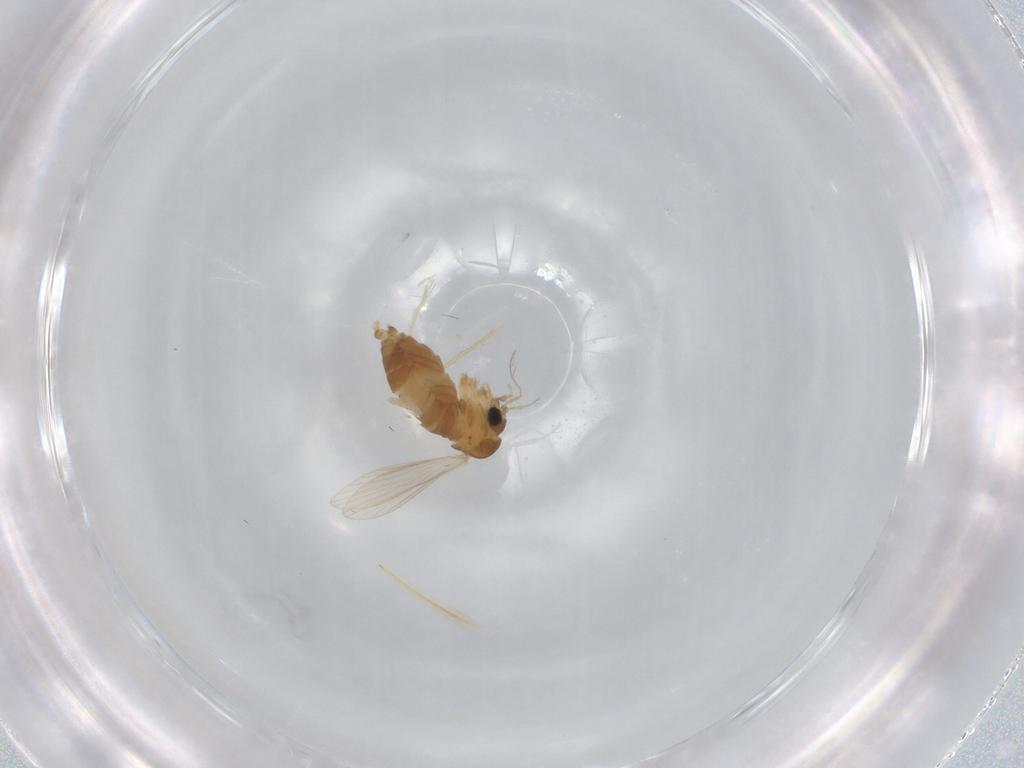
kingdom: Animalia
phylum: Arthropoda
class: Insecta
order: Diptera
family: Psychodidae
